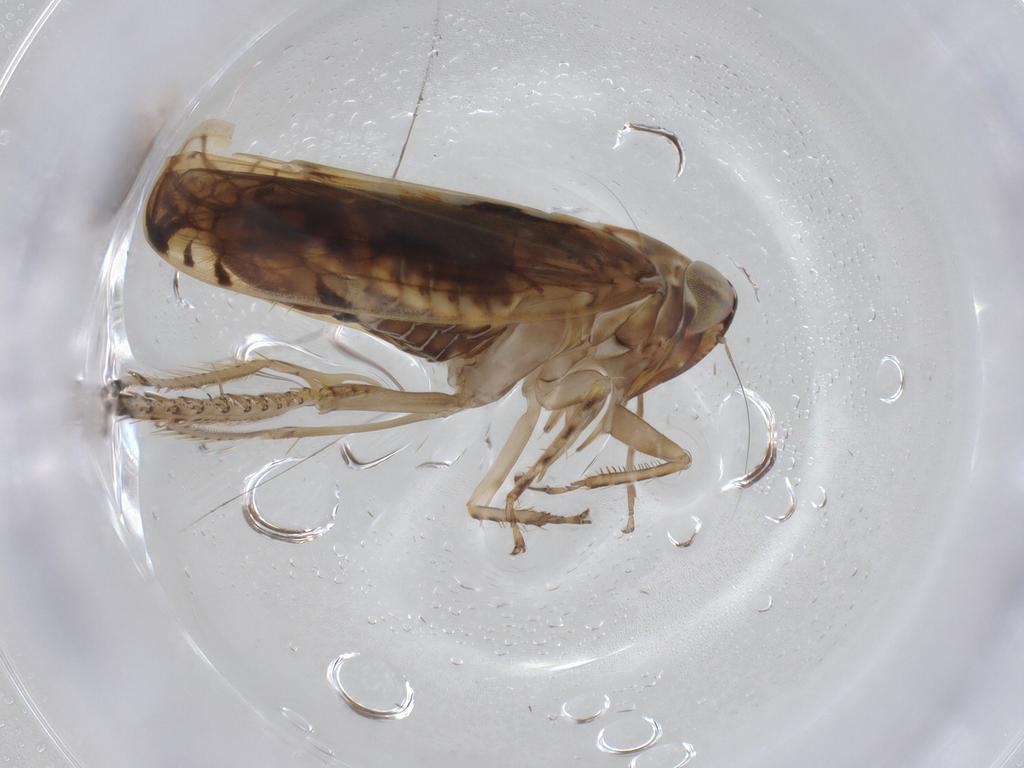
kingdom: Animalia
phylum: Arthropoda
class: Collembola
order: Entomobryomorpha
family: Entomobryidae
